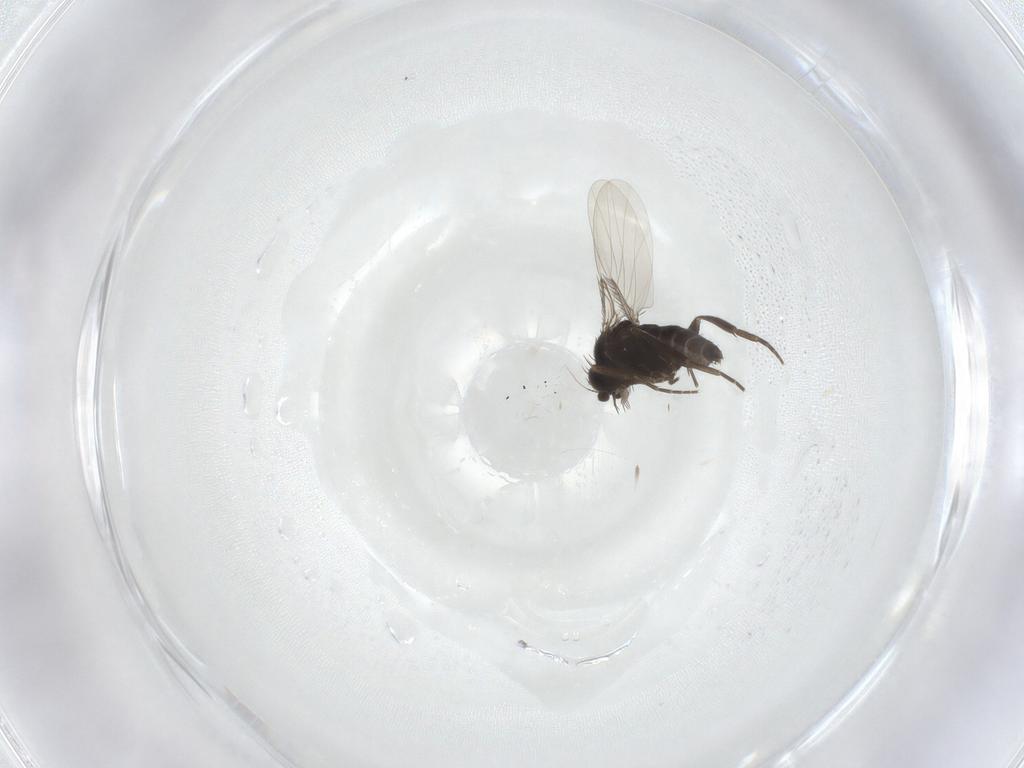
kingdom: Animalia
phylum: Arthropoda
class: Insecta
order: Diptera
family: Phoridae
